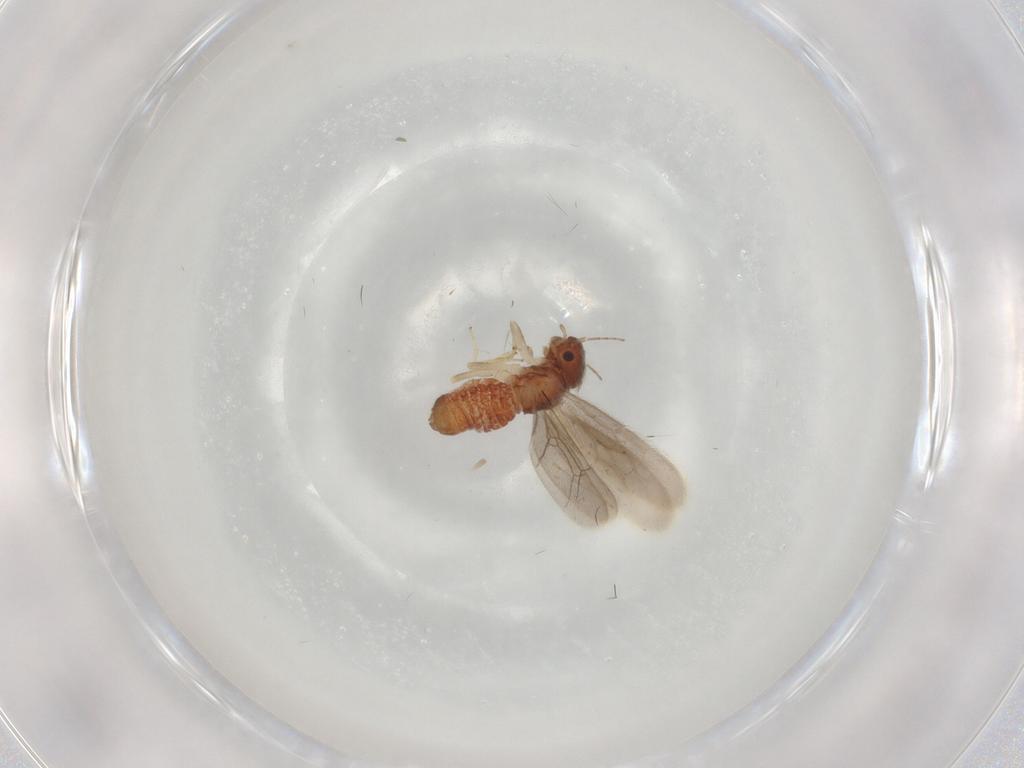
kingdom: Animalia
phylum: Arthropoda
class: Insecta
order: Psocodea
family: Archipsocidae
